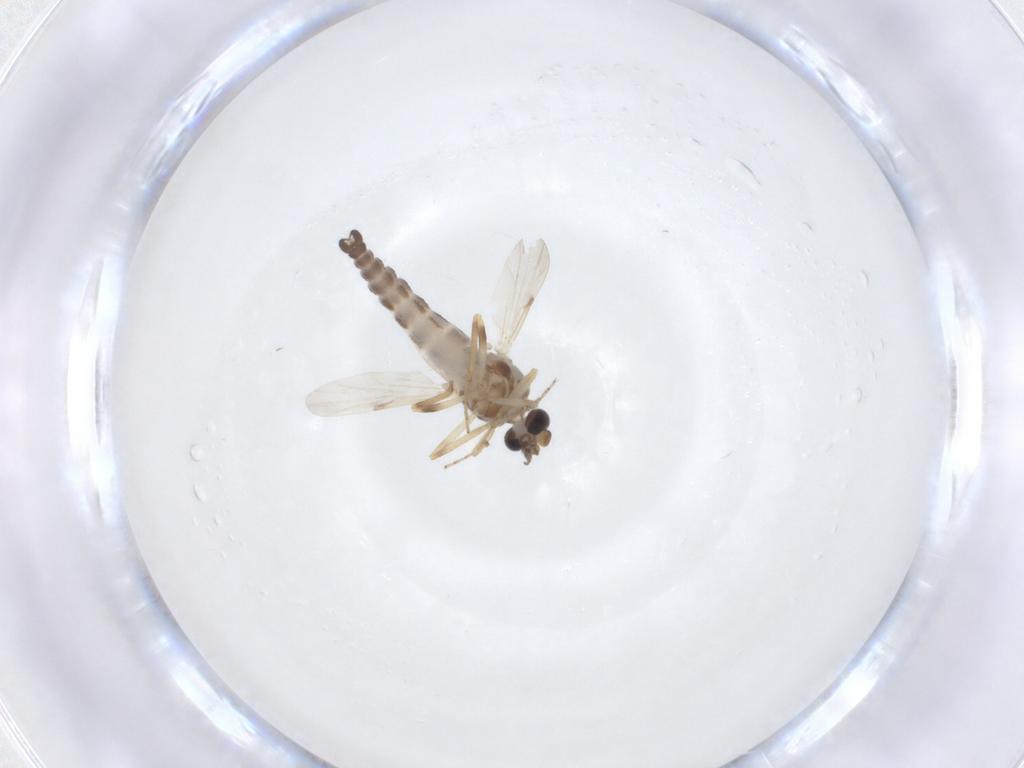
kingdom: Animalia
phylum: Arthropoda
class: Insecta
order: Diptera
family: Ceratopogonidae
